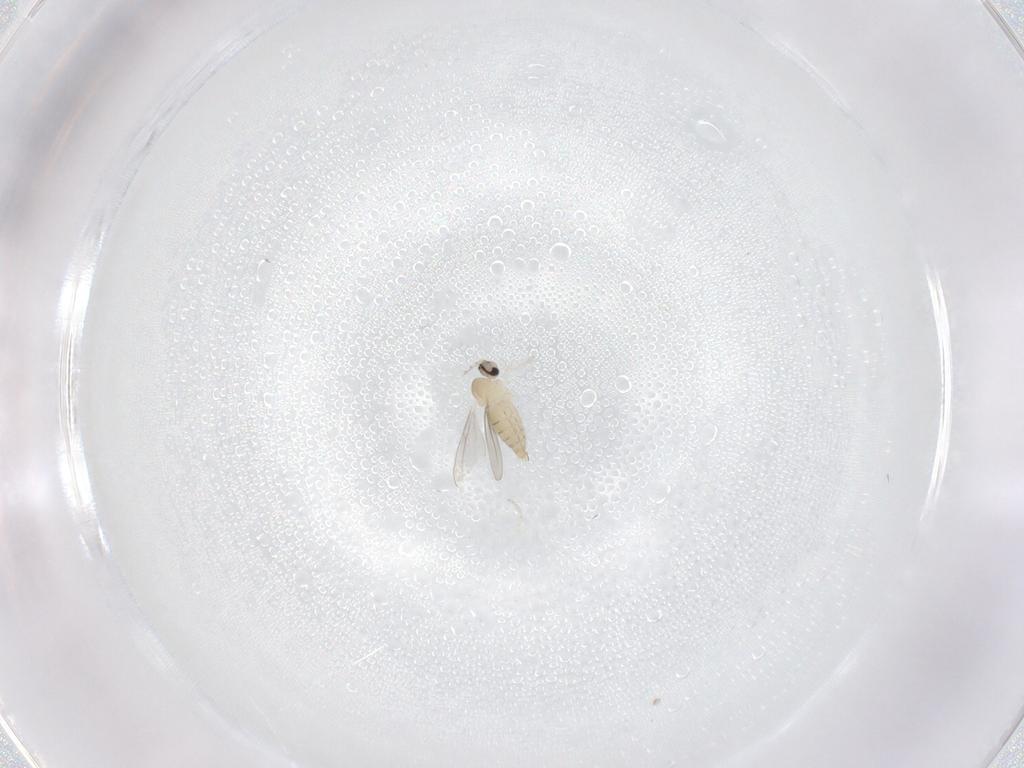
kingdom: Animalia
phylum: Arthropoda
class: Insecta
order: Diptera
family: Cecidomyiidae
